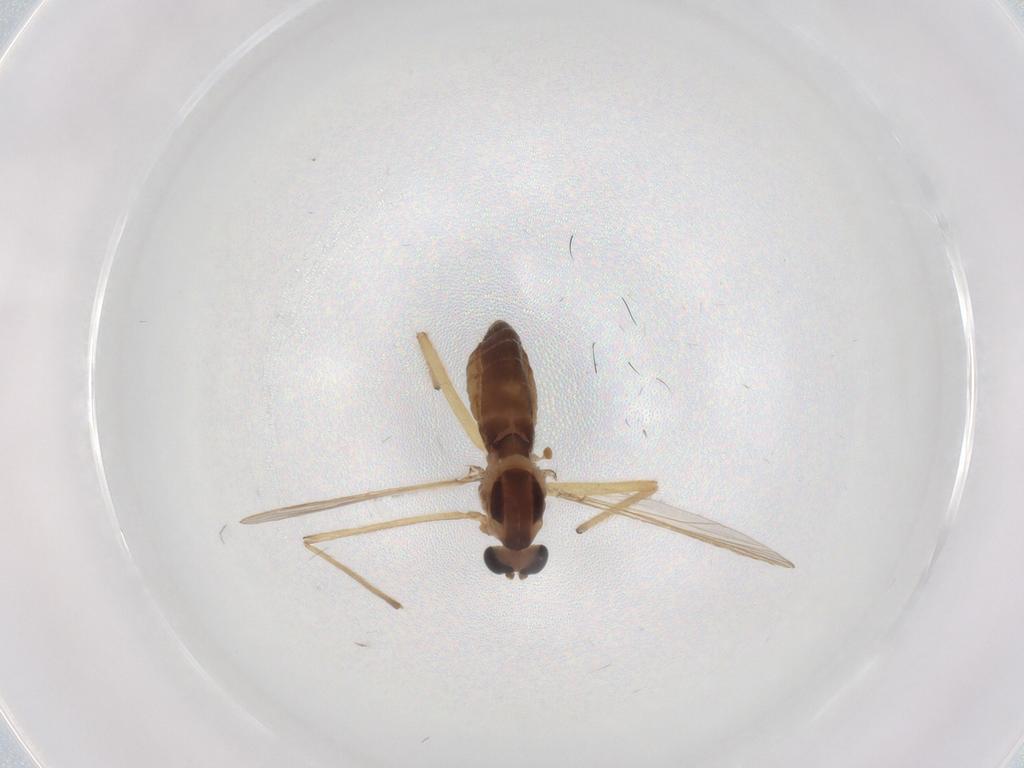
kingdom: Animalia
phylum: Arthropoda
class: Insecta
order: Diptera
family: Chironomidae
